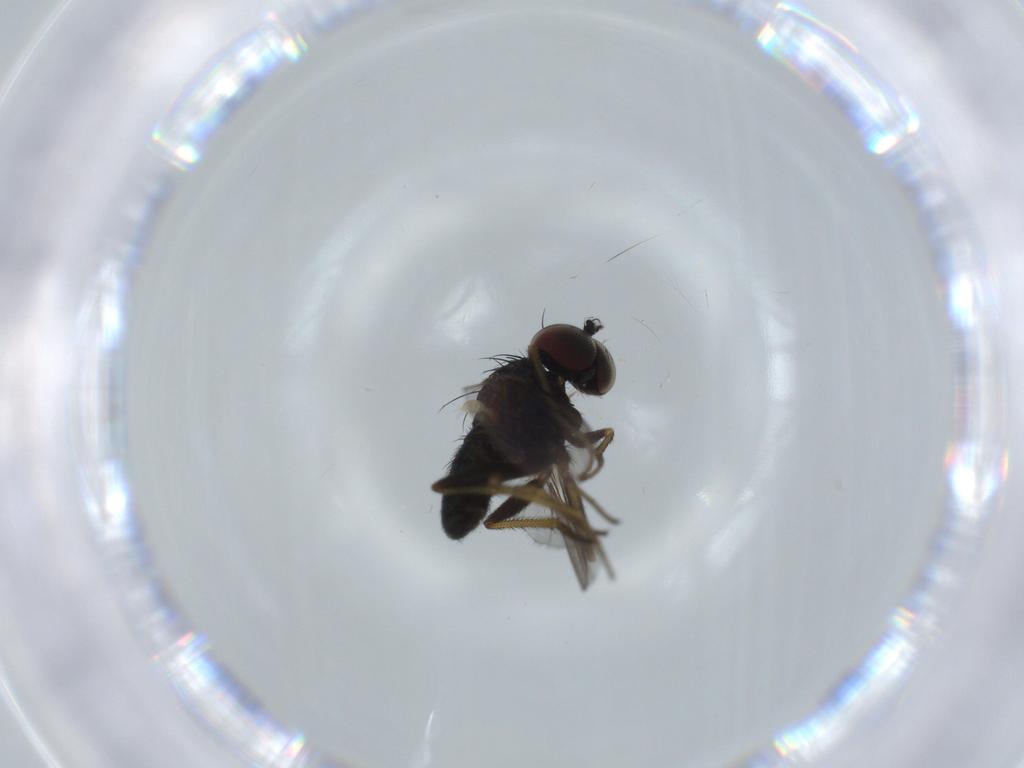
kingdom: Animalia
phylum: Arthropoda
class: Insecta
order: Diptera
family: Dolichopodidae
